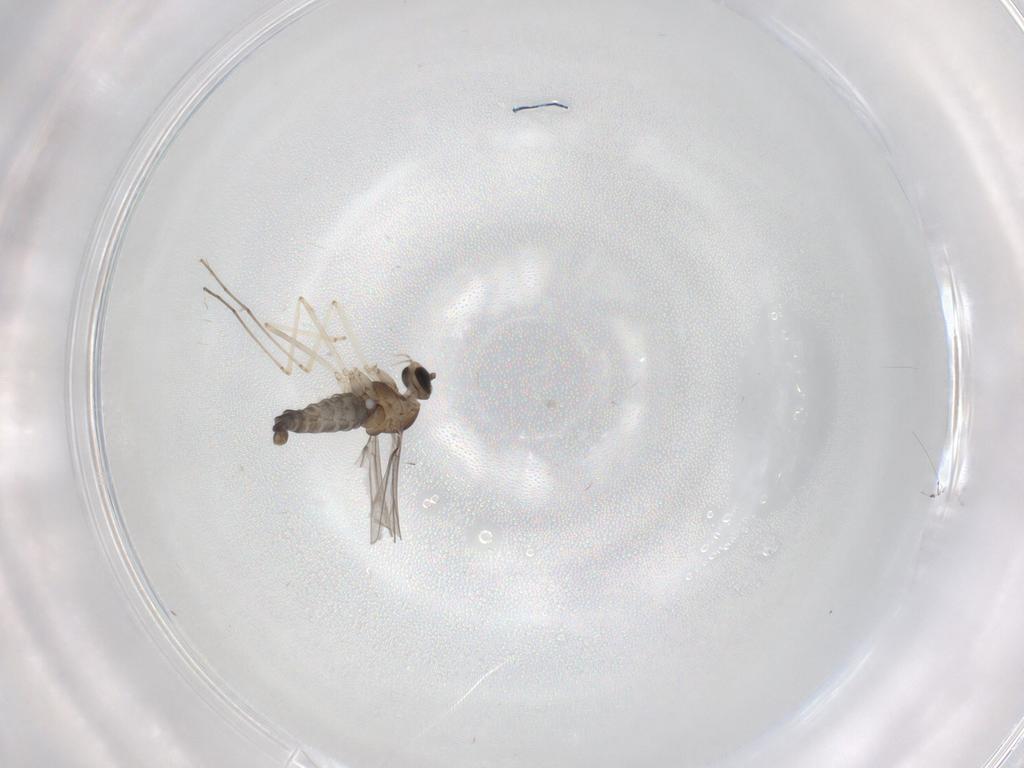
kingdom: Animalia
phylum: Arthropoda
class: Insecta
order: Diptera
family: Cecidomyiidae
